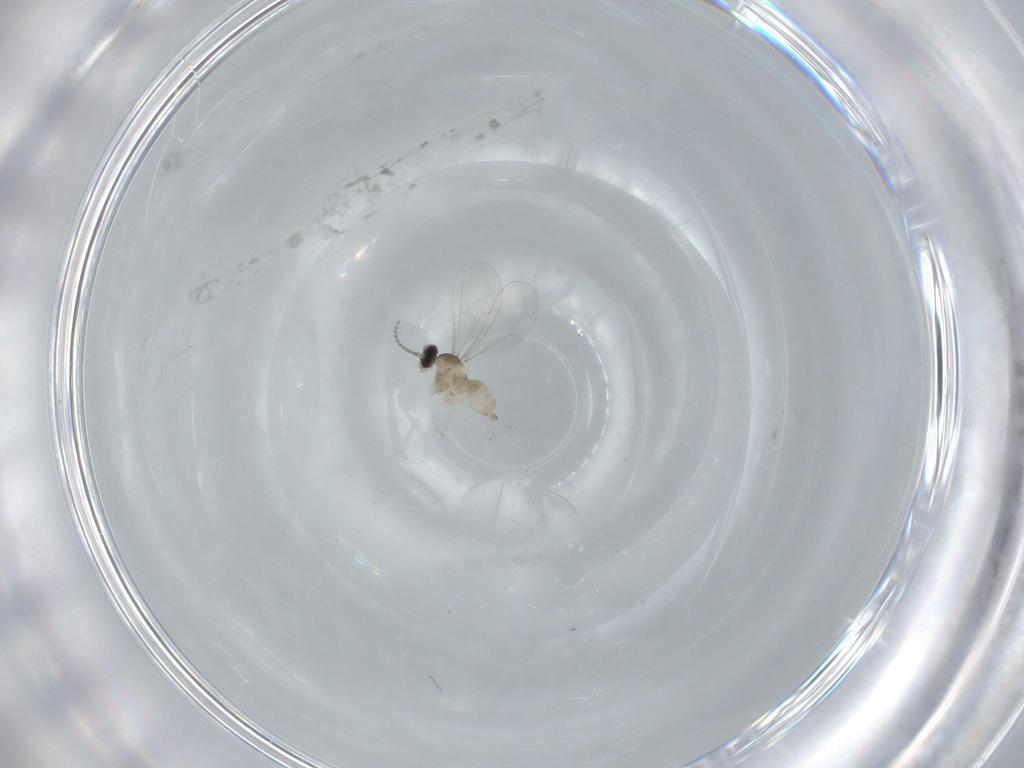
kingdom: Animalia
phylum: Arthropoda
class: Insecta
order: Diptera
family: Cecidomyiidae
